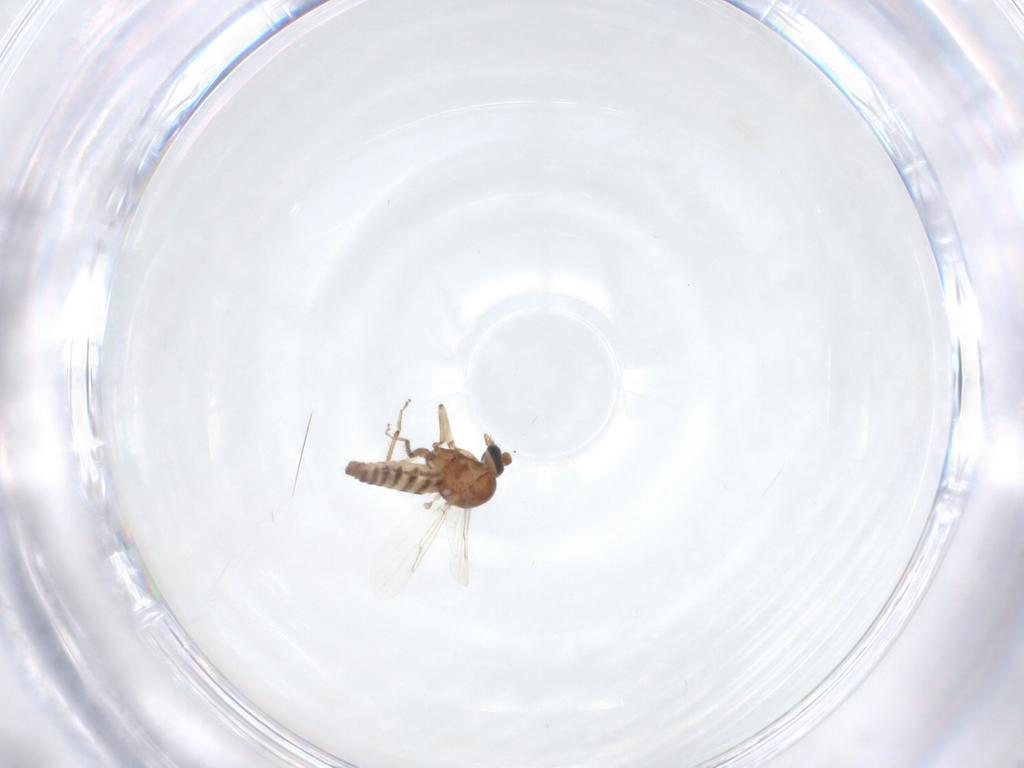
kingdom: Animalia
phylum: Arthropoda
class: Insecta
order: Diptera
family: Ceratopogonidae
